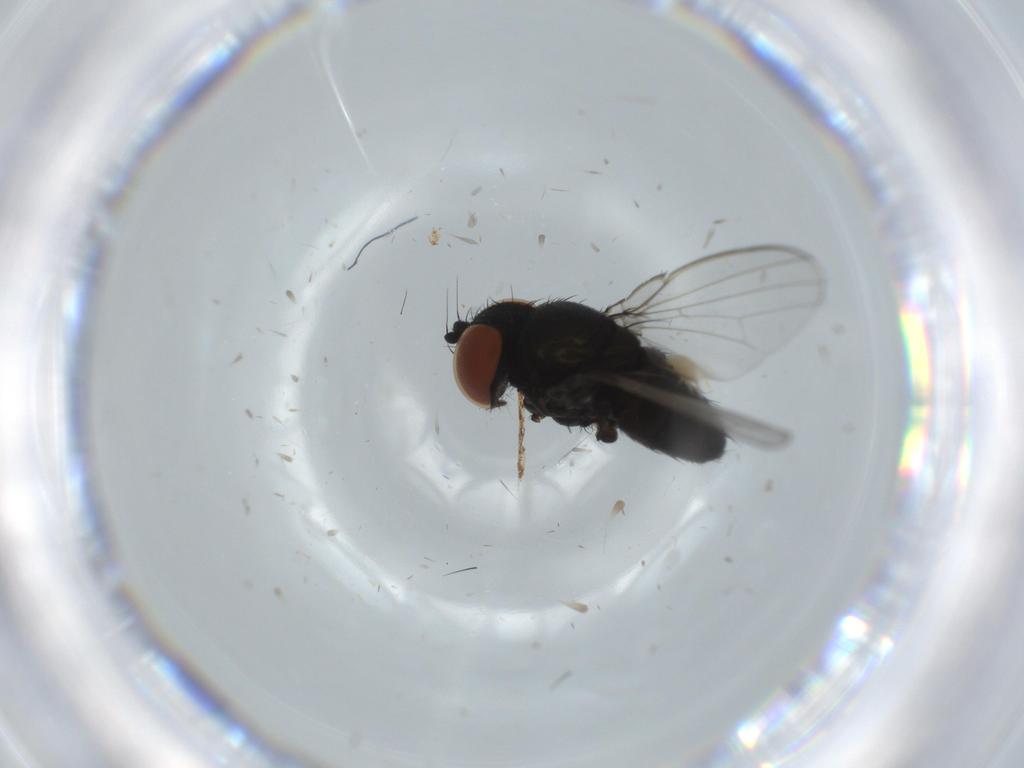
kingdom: Animalia
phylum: Arthropoda
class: Insecta
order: Diptera
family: Milichiidae
